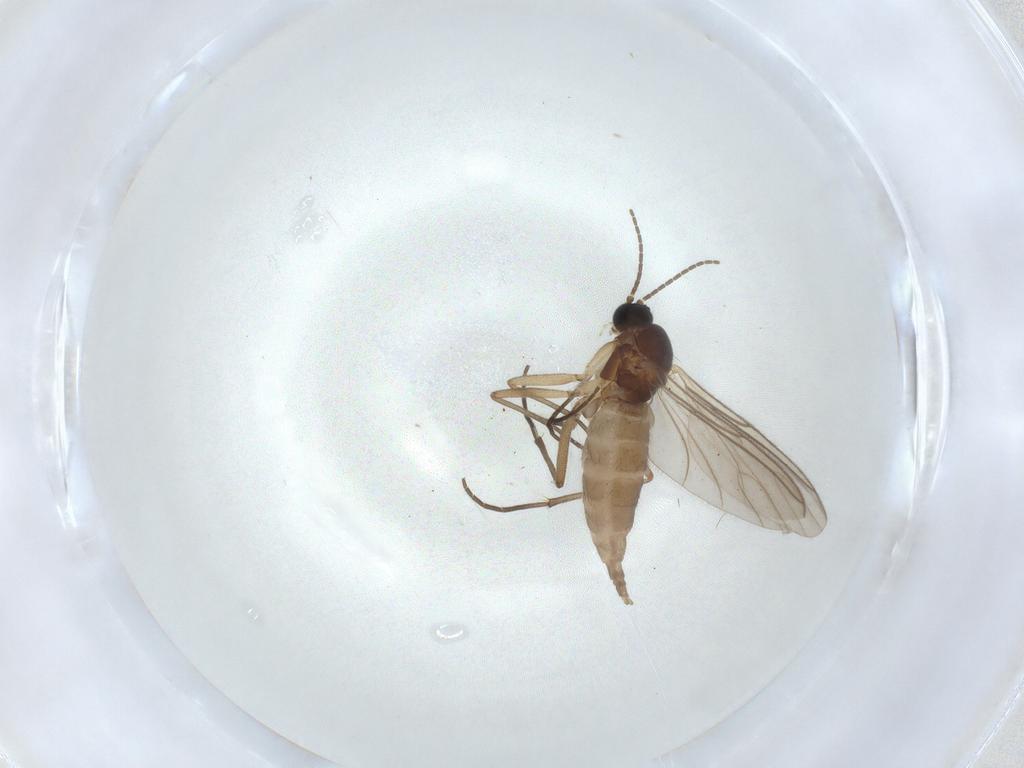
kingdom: Animalia
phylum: Arthropoda
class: Insecta
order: Diptera
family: Sciaridae
